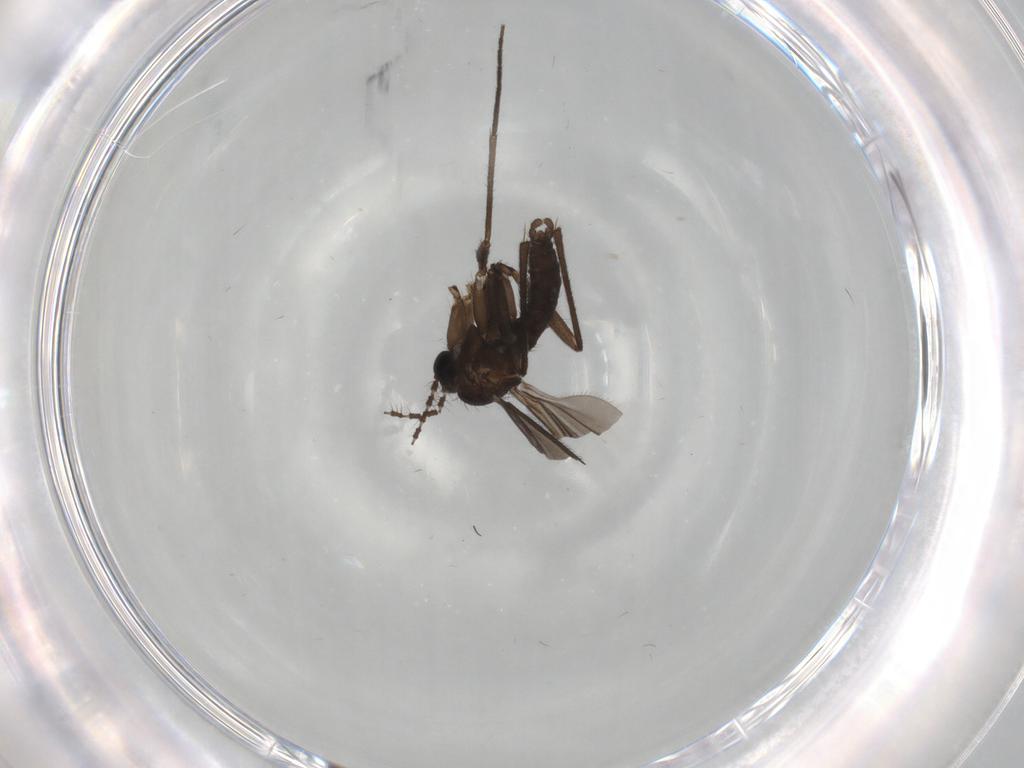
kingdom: Animalia
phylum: Arthropoda
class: Insecta
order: Diptera
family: Sciaridae
